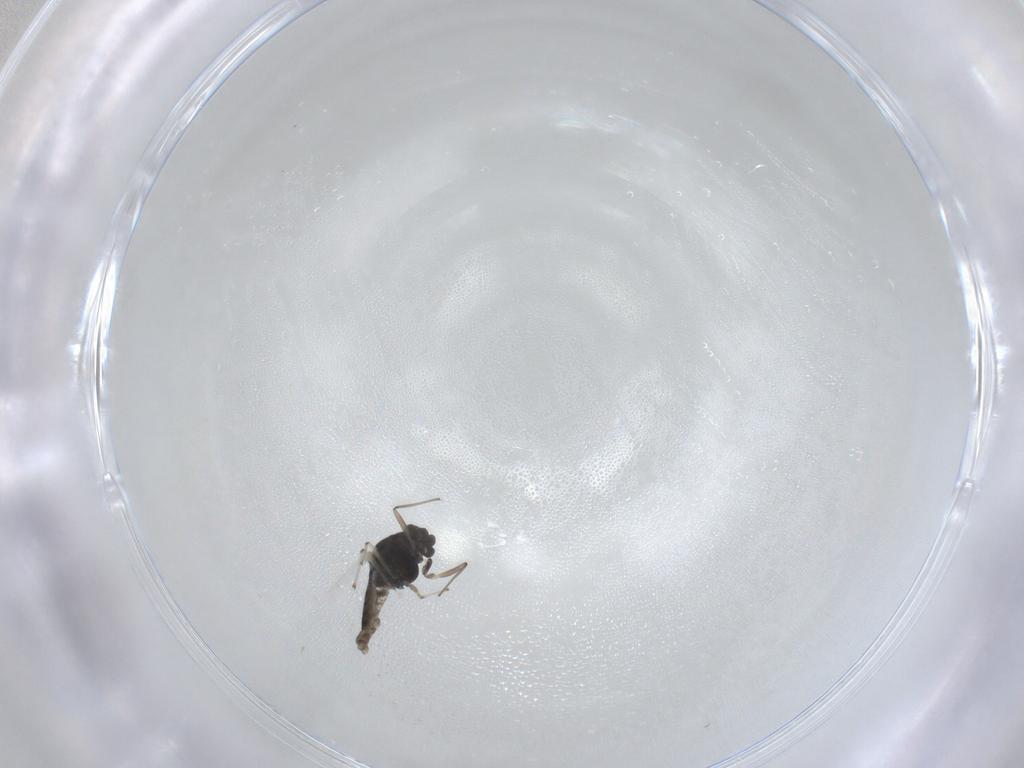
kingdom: Animalia
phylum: Arthropoda
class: Insecta
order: Diptera
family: Chironomidae
